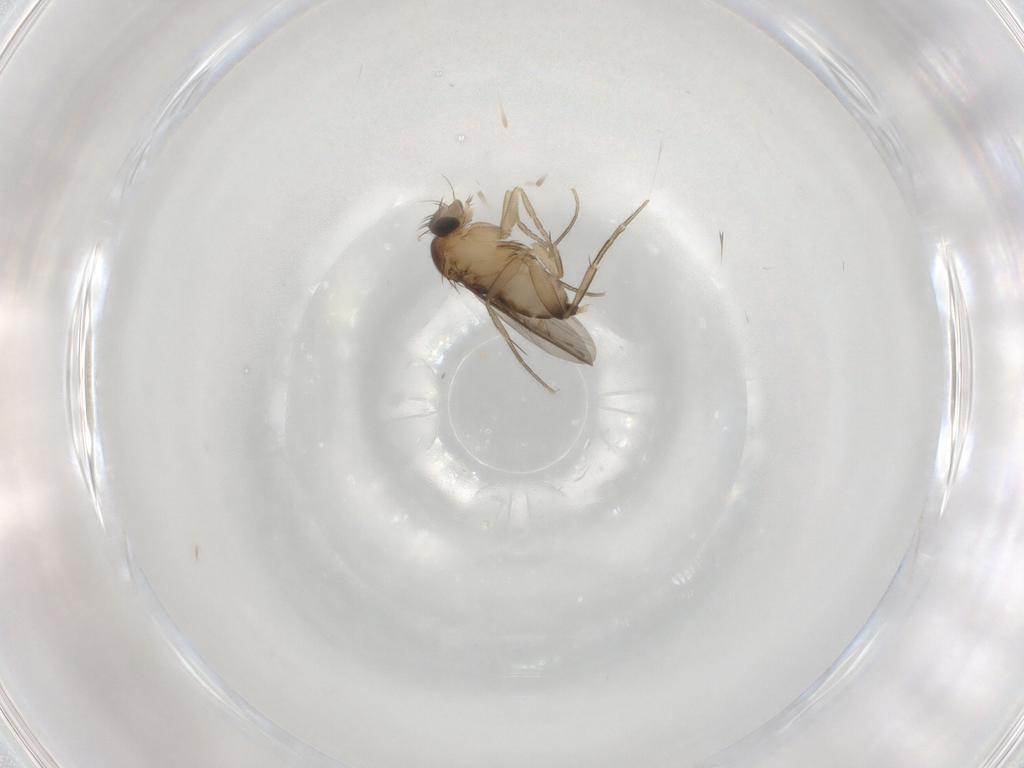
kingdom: Animalia
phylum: Arthropoda
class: Insecta
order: Diptera
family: Phoridae
